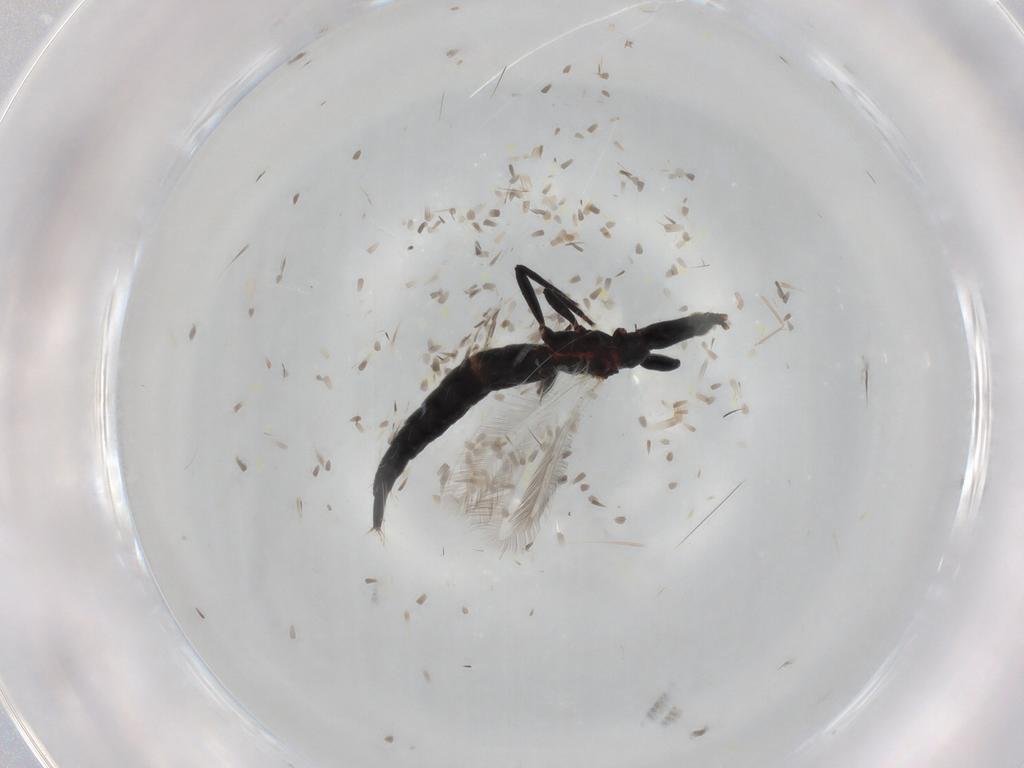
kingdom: Animalia
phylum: Arthropoda
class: Insecta
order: Thysanoptera
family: Phlaeothripidae
